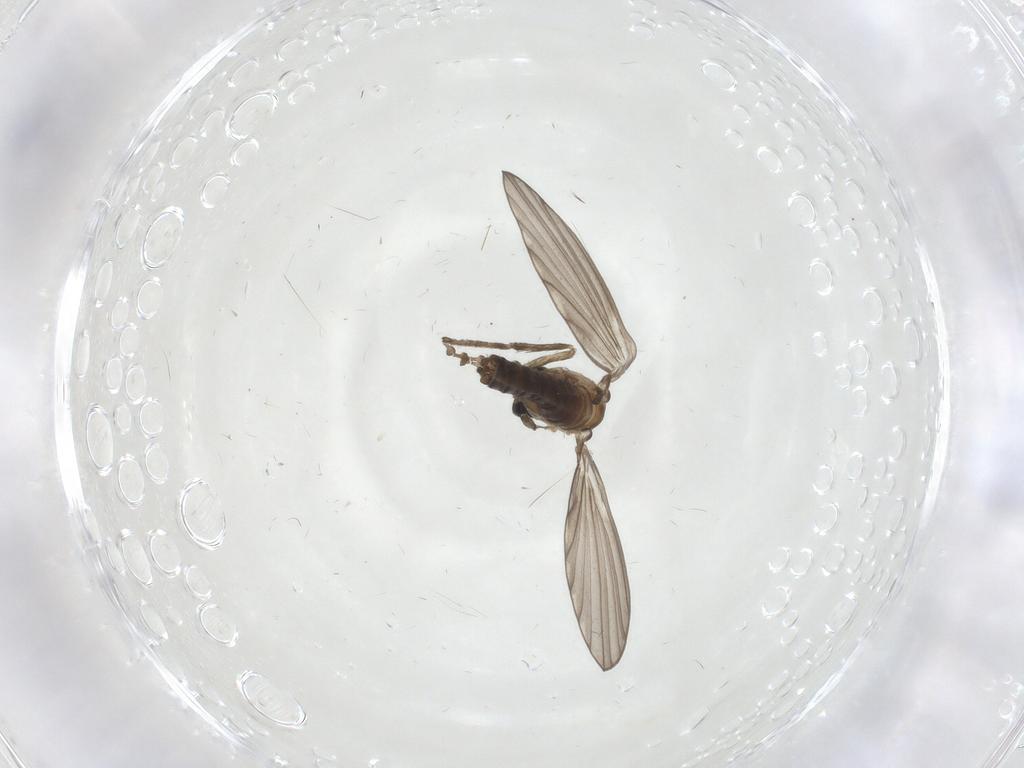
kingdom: Animalia
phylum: Arthropoda
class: Insecta
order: Diptera
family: Psychodidae
